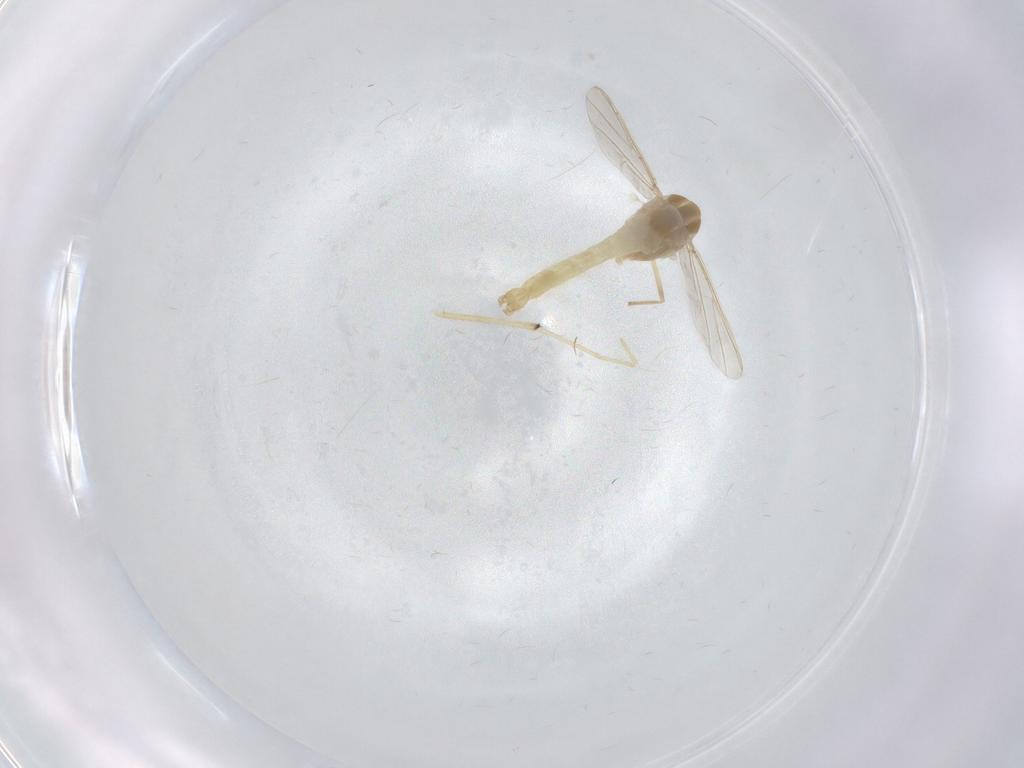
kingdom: Animalia
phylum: Arthropoda
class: Insecta
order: Diptera
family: Chironomidae
